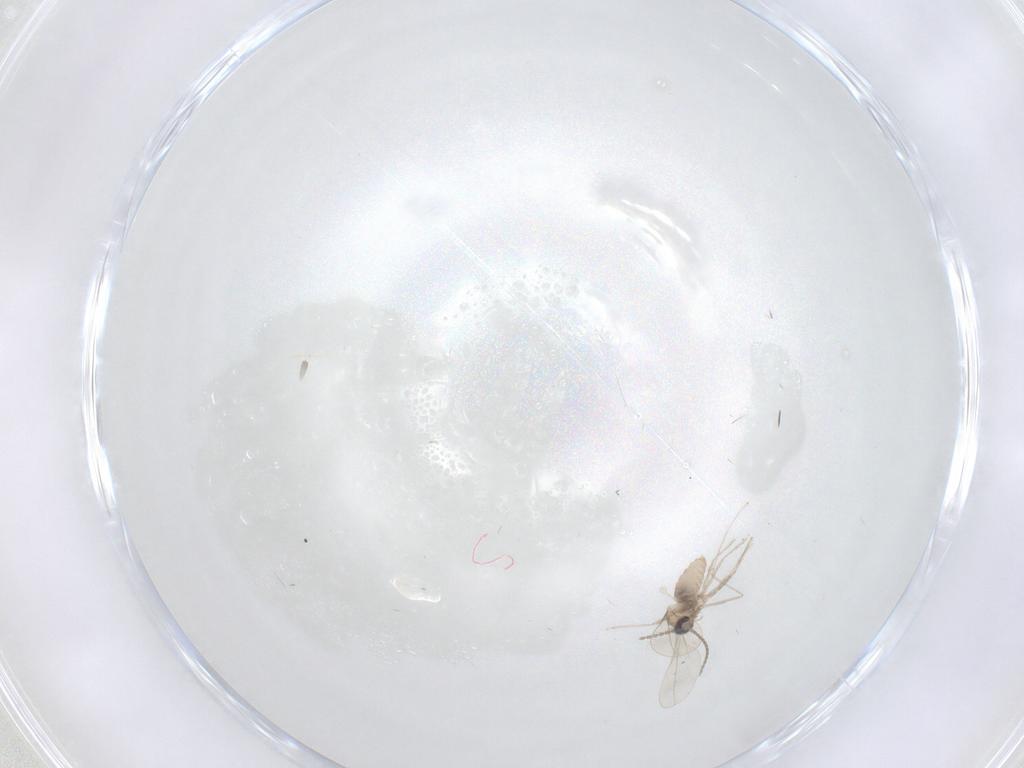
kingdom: Animalia
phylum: Arthropoda
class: Insecta
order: Diptera
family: Cecidomyiidae
